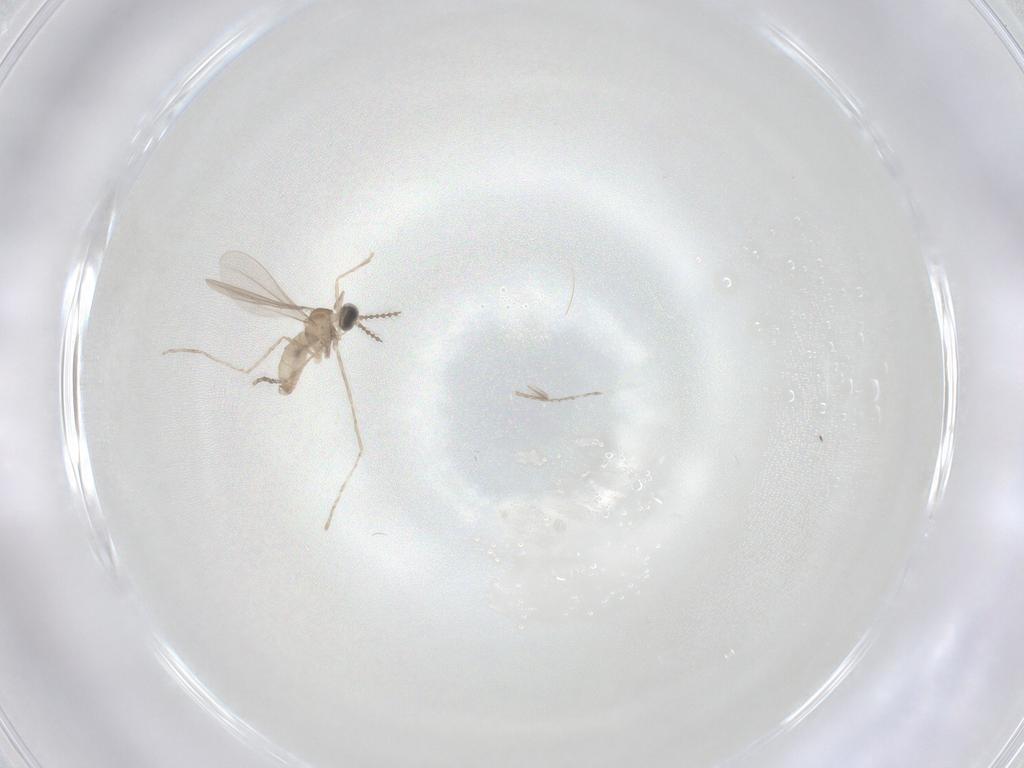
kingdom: Animalia
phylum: Arthropoda
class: Insecta
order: Diptera
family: Cecidomyiidae
